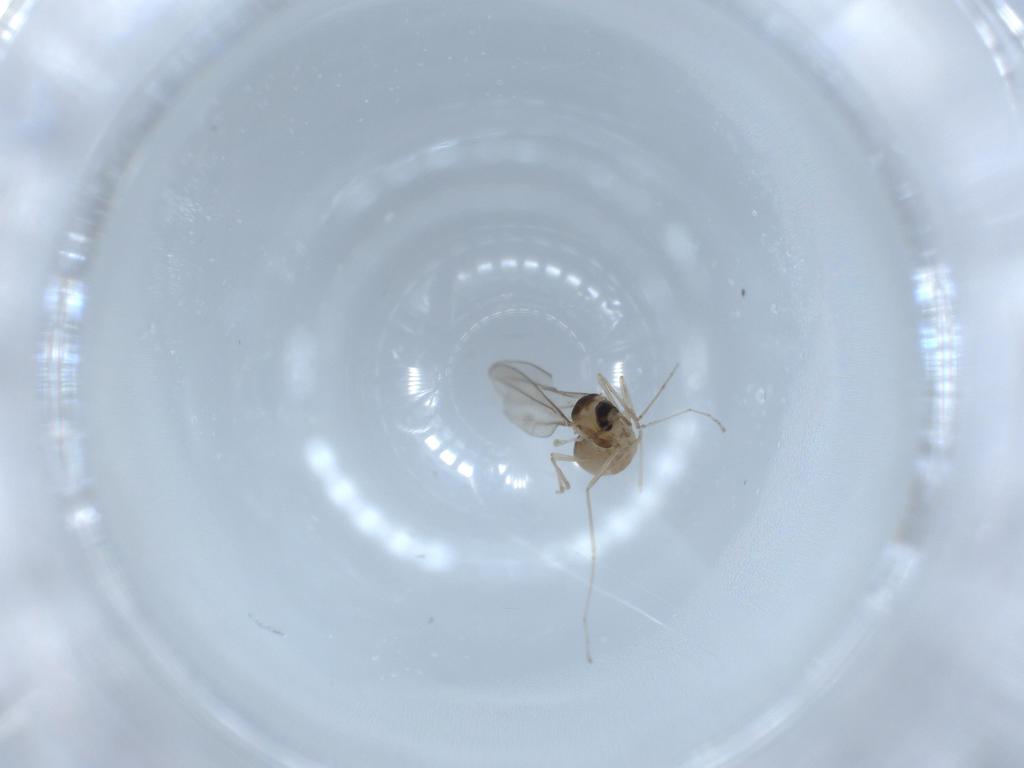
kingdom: Animalia
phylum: Arthropoda
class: Insecta
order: Diptera
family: Cecidomyiidae
